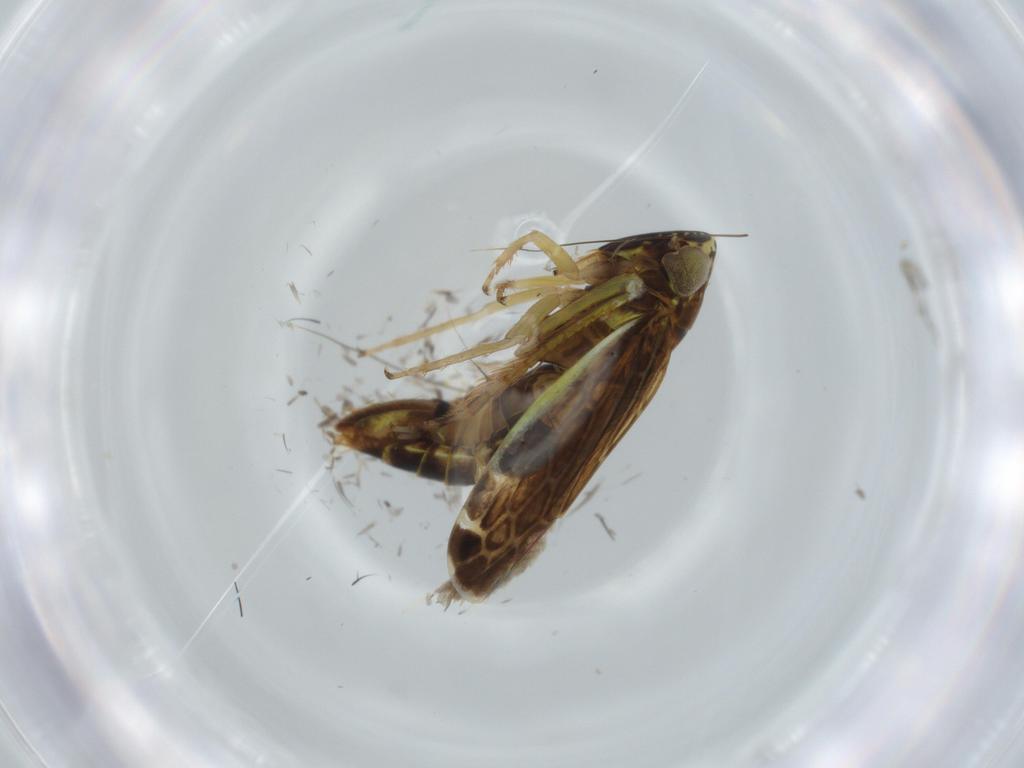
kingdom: Animalia
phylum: Arthropoda
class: Insecta
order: Hemiptera
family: Cicadellidae
